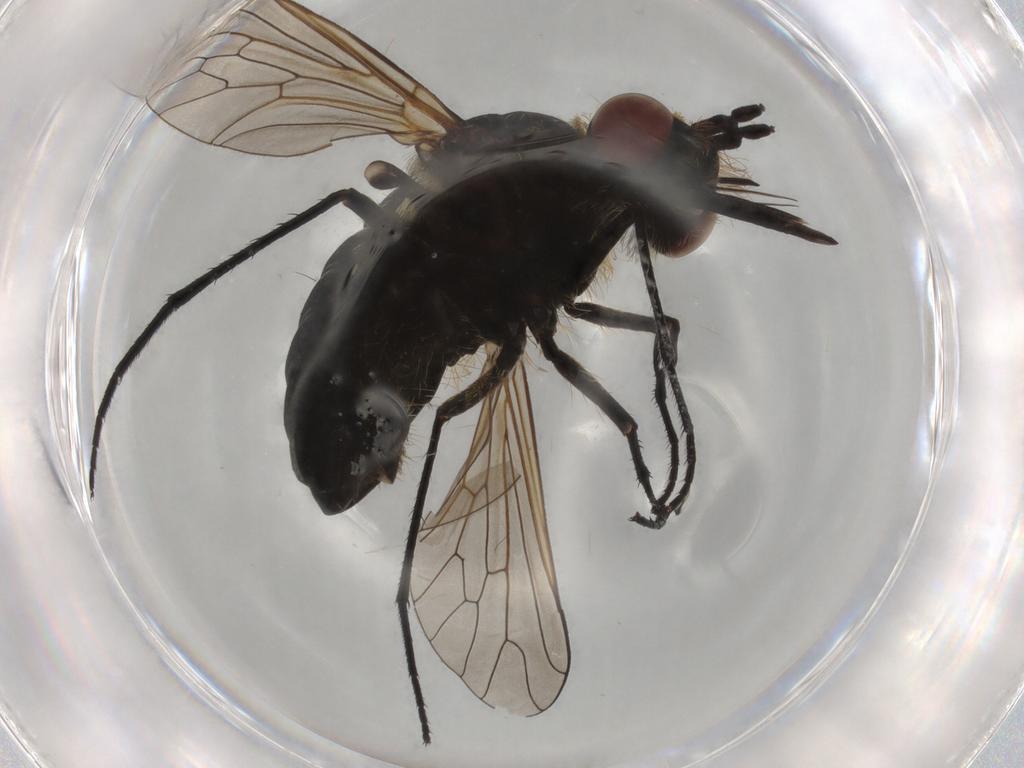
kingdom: Animalia
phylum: Arthropoda
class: Insecta
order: Diptera
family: Bombyliidae
